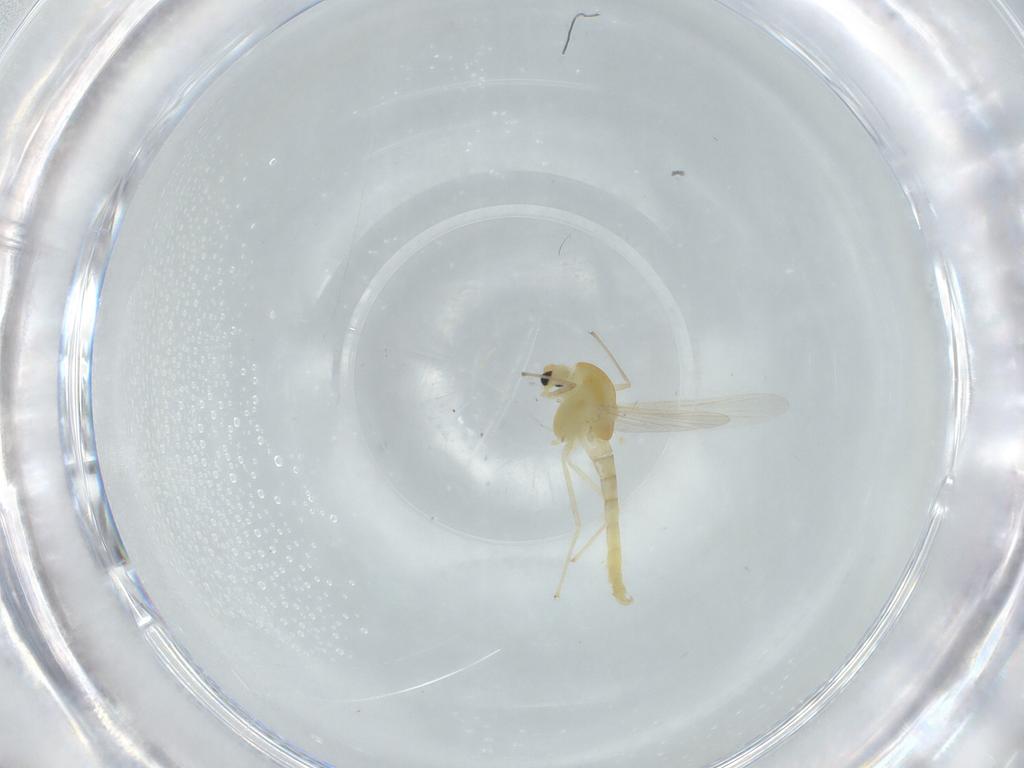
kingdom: Animalia
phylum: Arthropoda
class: Insecta
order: Diptera
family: Chironomidae
